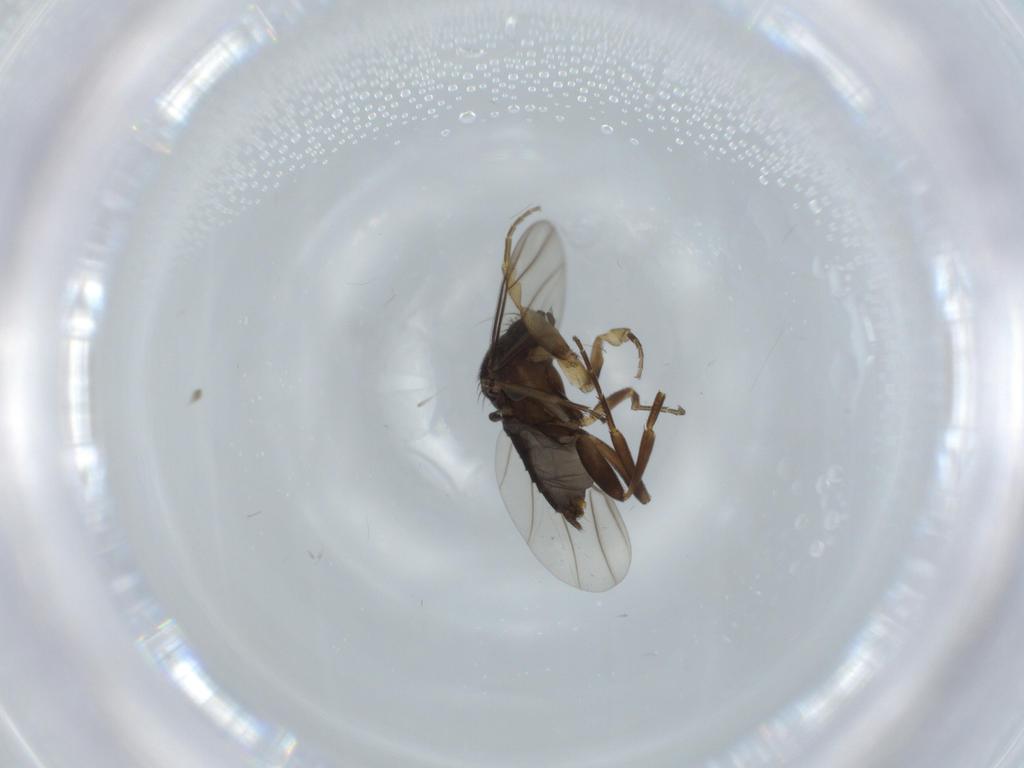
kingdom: Animalia
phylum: Arthropoda
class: Insecta
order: Diptera
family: Phoridae
